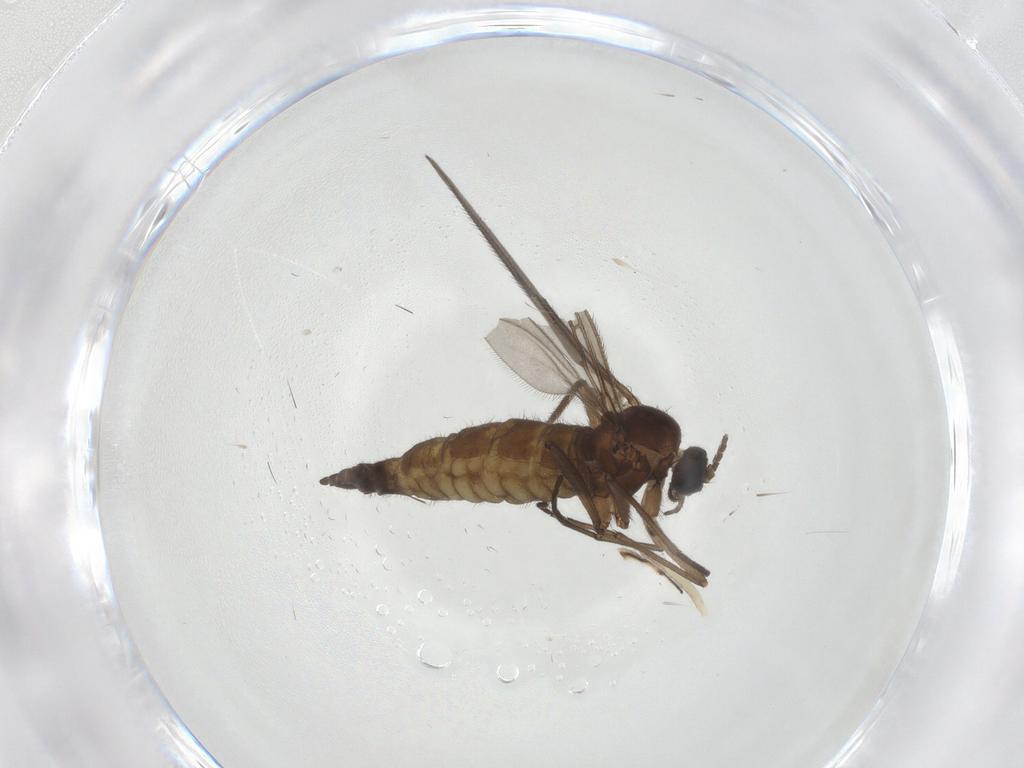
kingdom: Animalia
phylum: Arthropoda
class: Insecta
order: Diptera
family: Sciaridae
